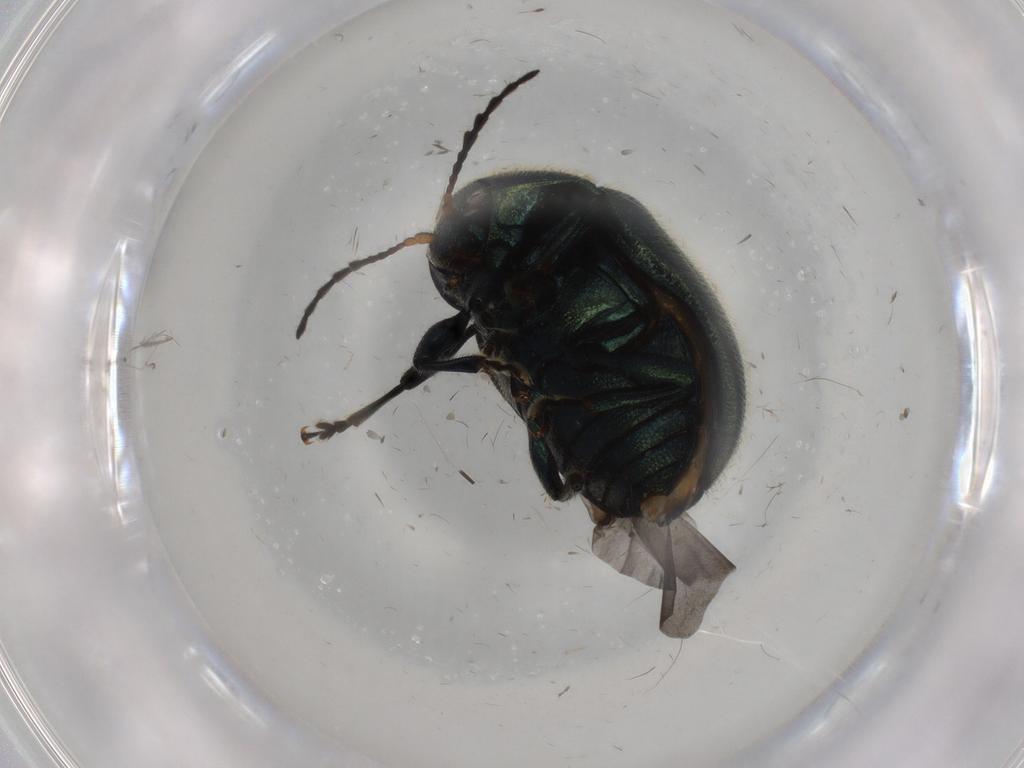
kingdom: Animalia
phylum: Arthropoda
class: Insecta
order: Coleoptera
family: Chrysomelidae
